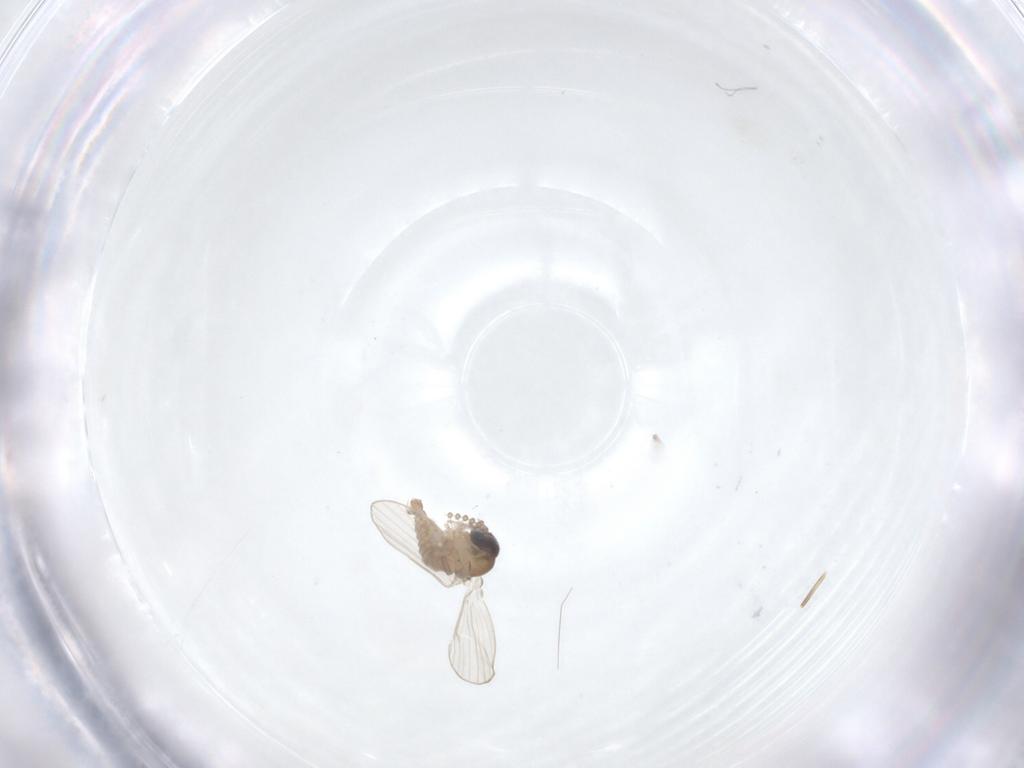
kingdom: Animalia
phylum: Arthropoda
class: Insecta
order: Diptera
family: Psychodidae
